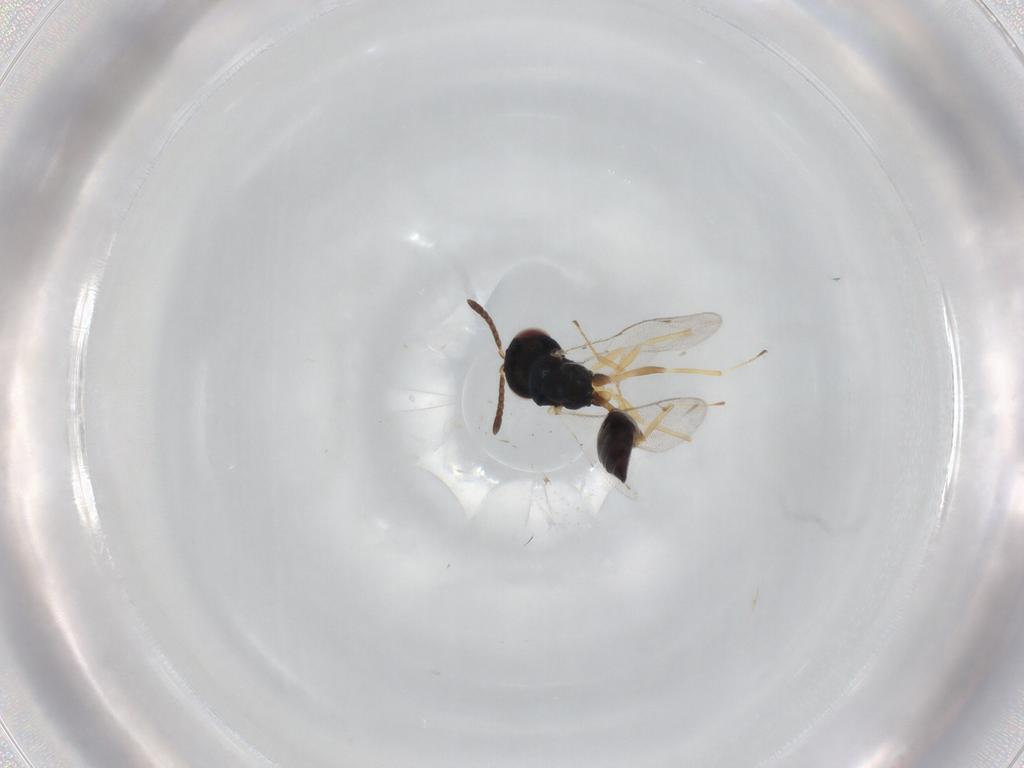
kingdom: Animalia
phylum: Arthropoda
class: Insecta
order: Hymenoptera
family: Pteromalidae
